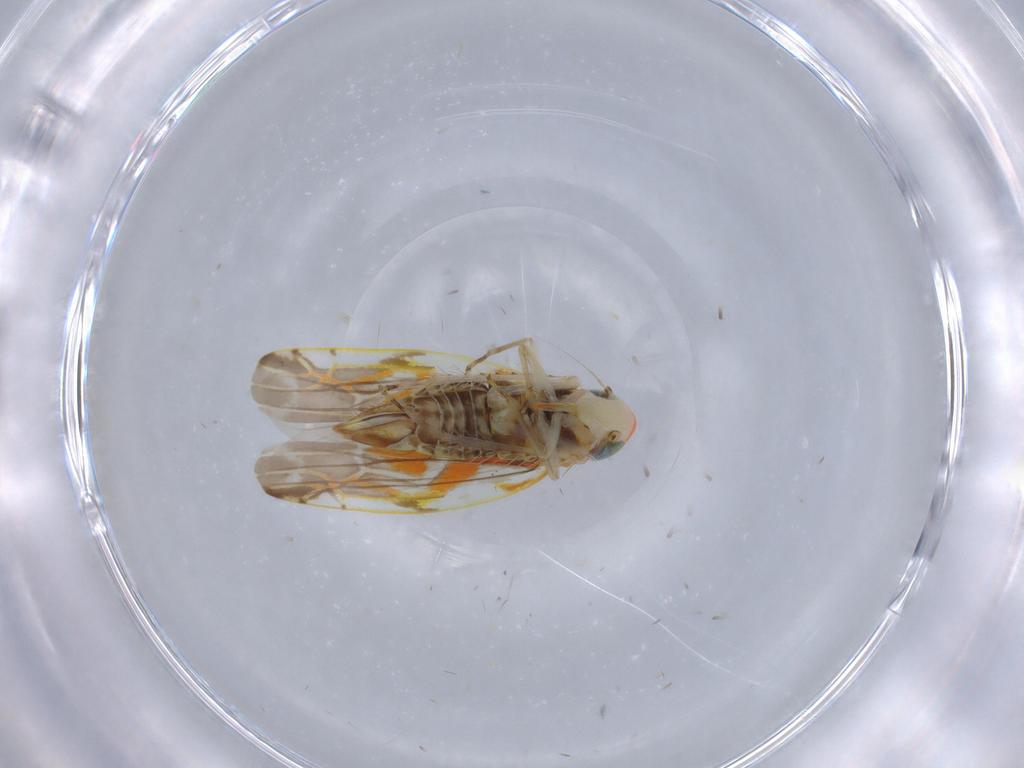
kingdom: Animalia
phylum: Arthropoda
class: Insecta
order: Hemiptera
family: Cicadellidae
